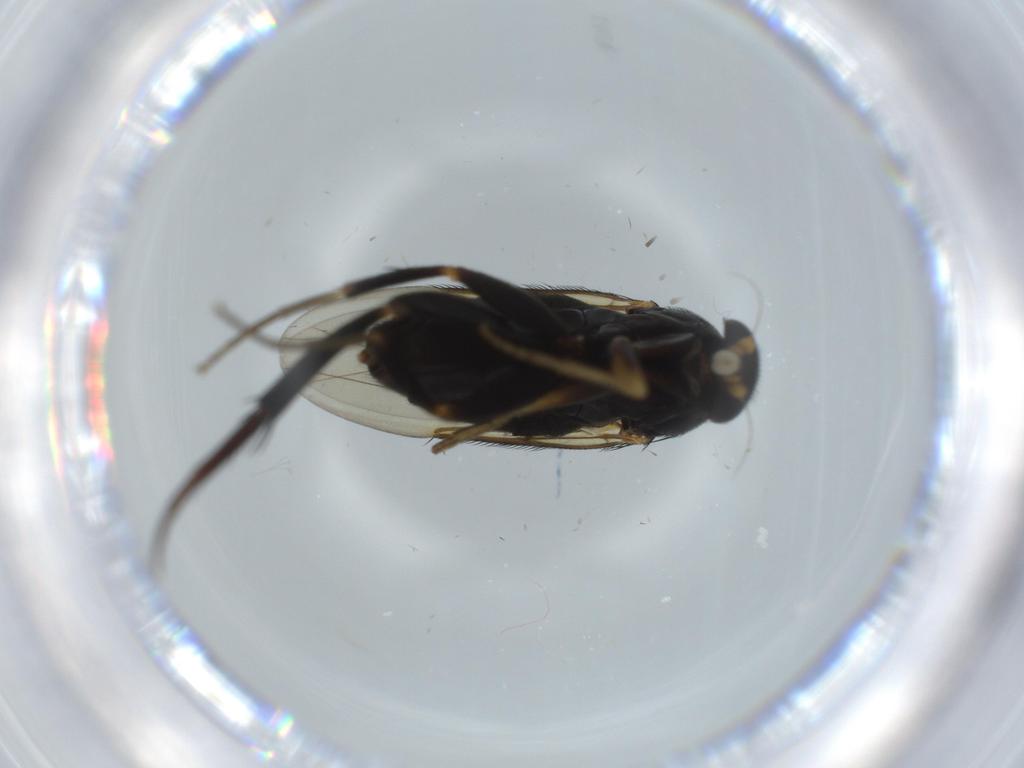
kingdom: Animalia
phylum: Arthropoda
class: Insecta
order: Diptera
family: Phoridae
